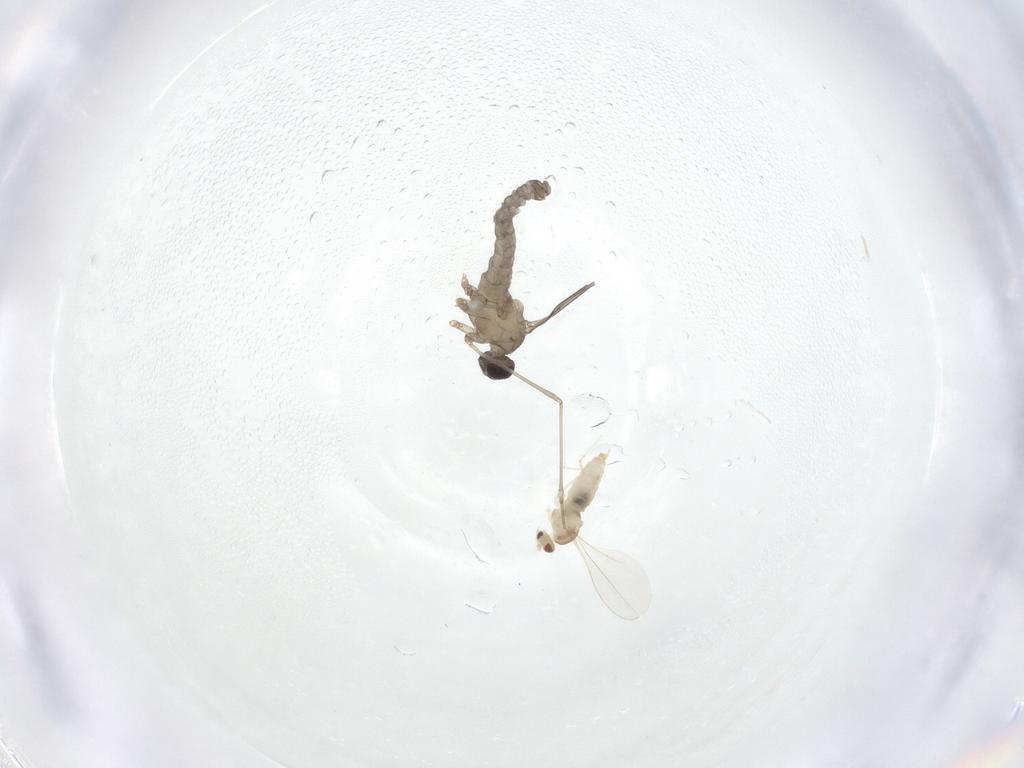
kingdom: Animalia
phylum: Arthropoda
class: Insecta
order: Diptera
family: Cecidomyiidae
